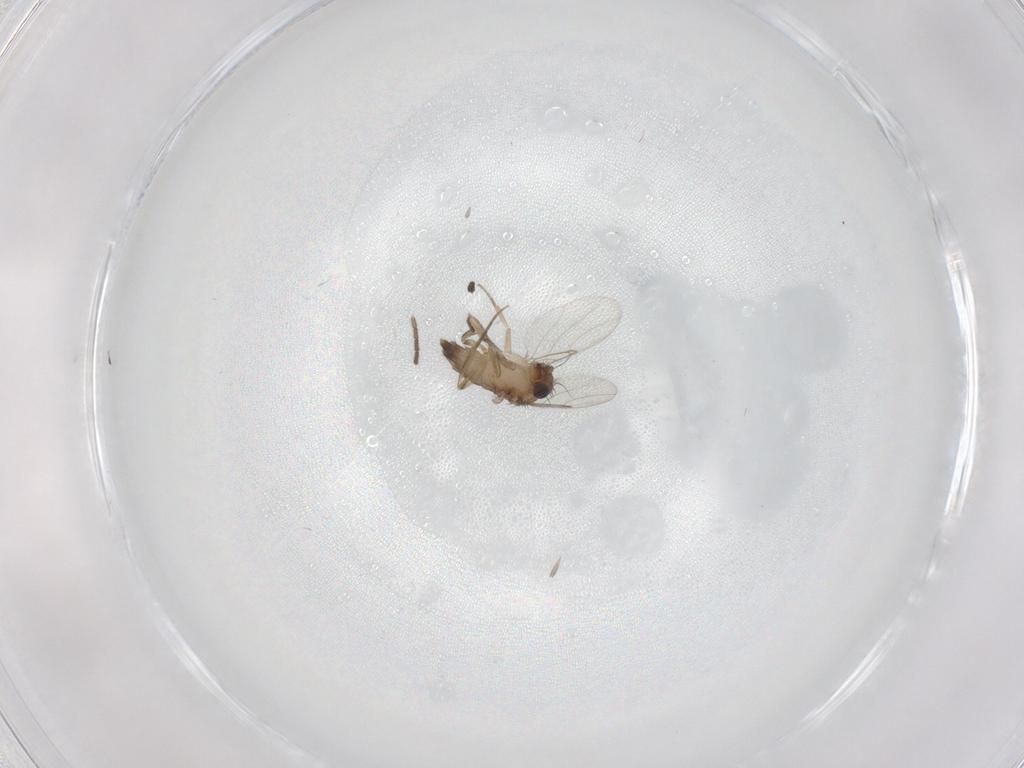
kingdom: Animalia
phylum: Arthropoda
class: Insecta
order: Diptera
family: Phoridae
